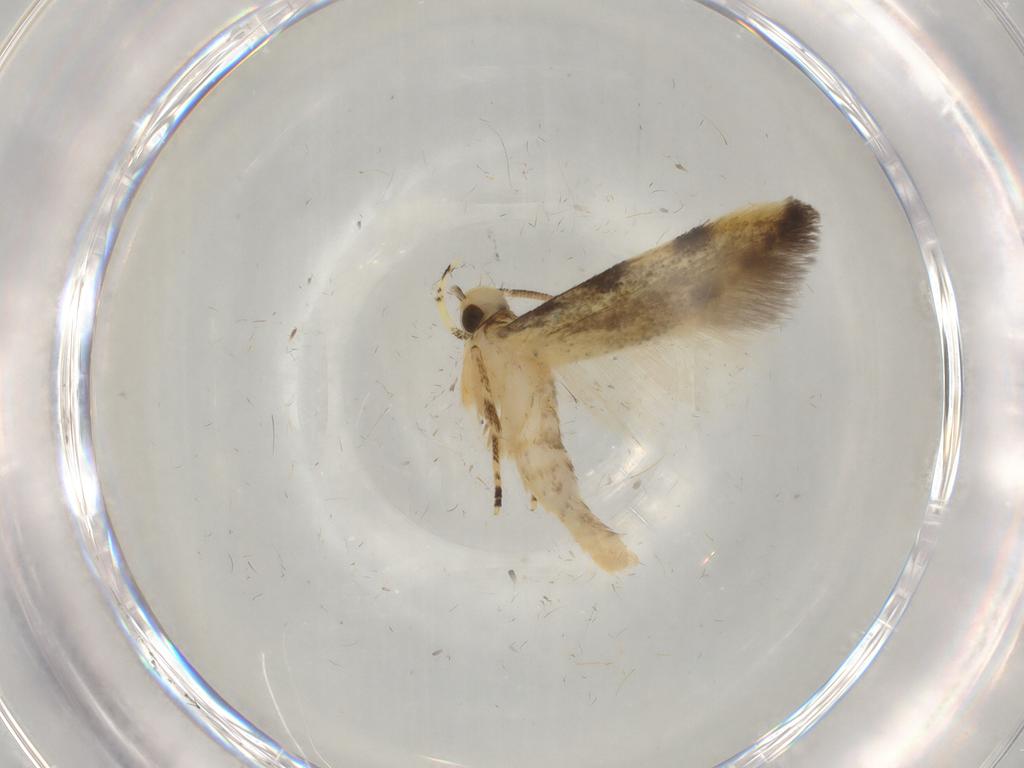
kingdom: Animalia
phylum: Arthropoda
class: Insecta
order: Lepidoptera
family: Autostichidae
